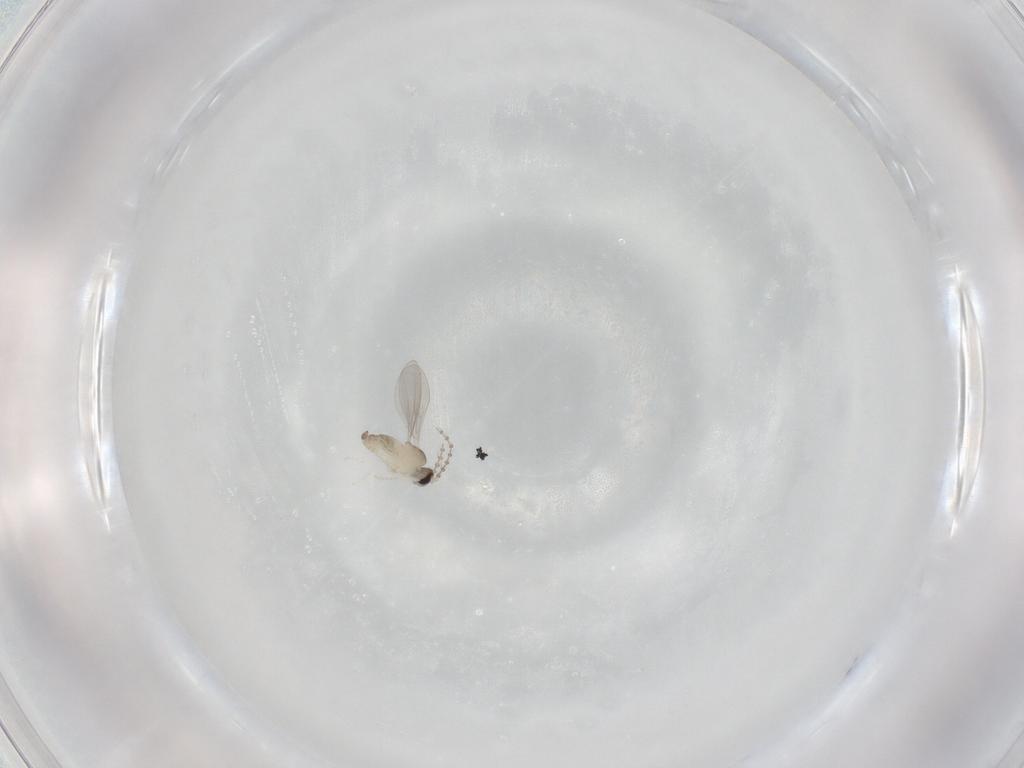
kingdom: Animalia
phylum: Arthropoda
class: Insecta
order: Diptera
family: Cecidomyiidae
